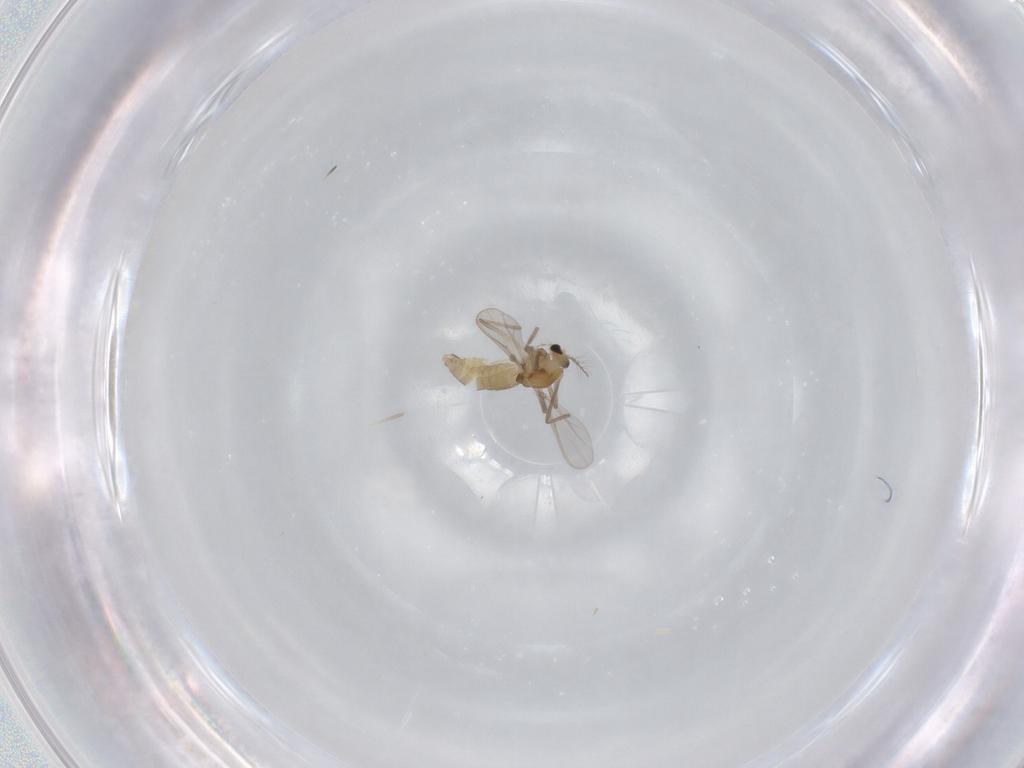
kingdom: Animalia
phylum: Arthropoda
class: Insecta
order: Diptera
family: Chironomidae
